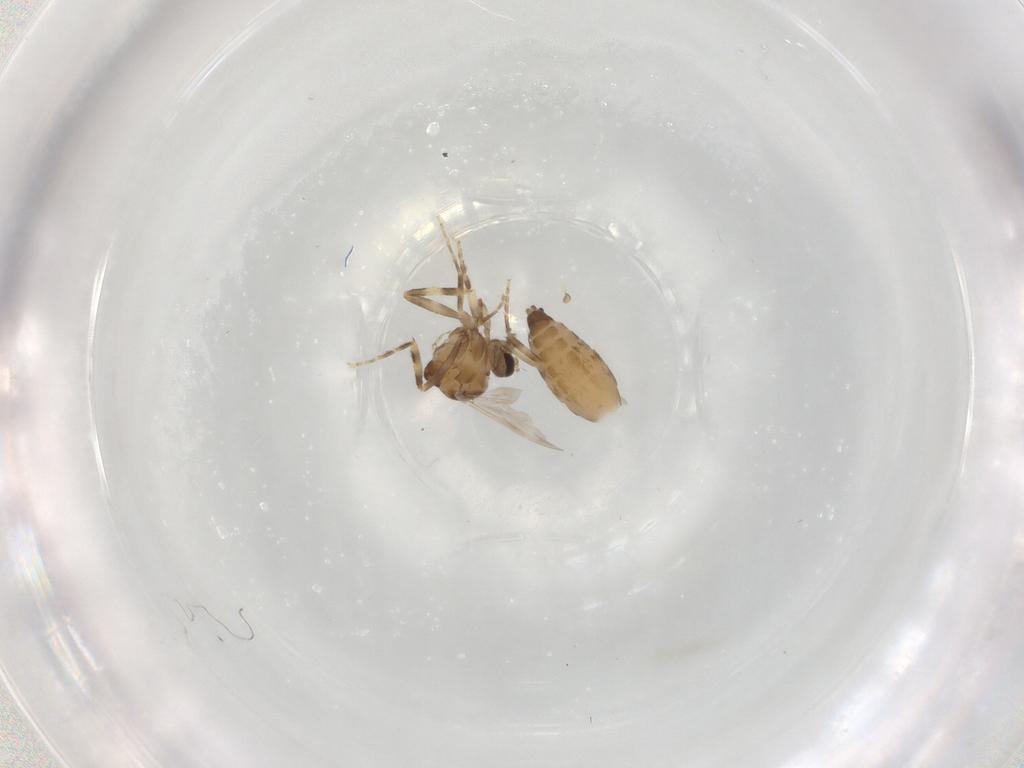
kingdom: Animalia
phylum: Arthropoda
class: Insecta
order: Diptera
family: Ceratopogonidae
